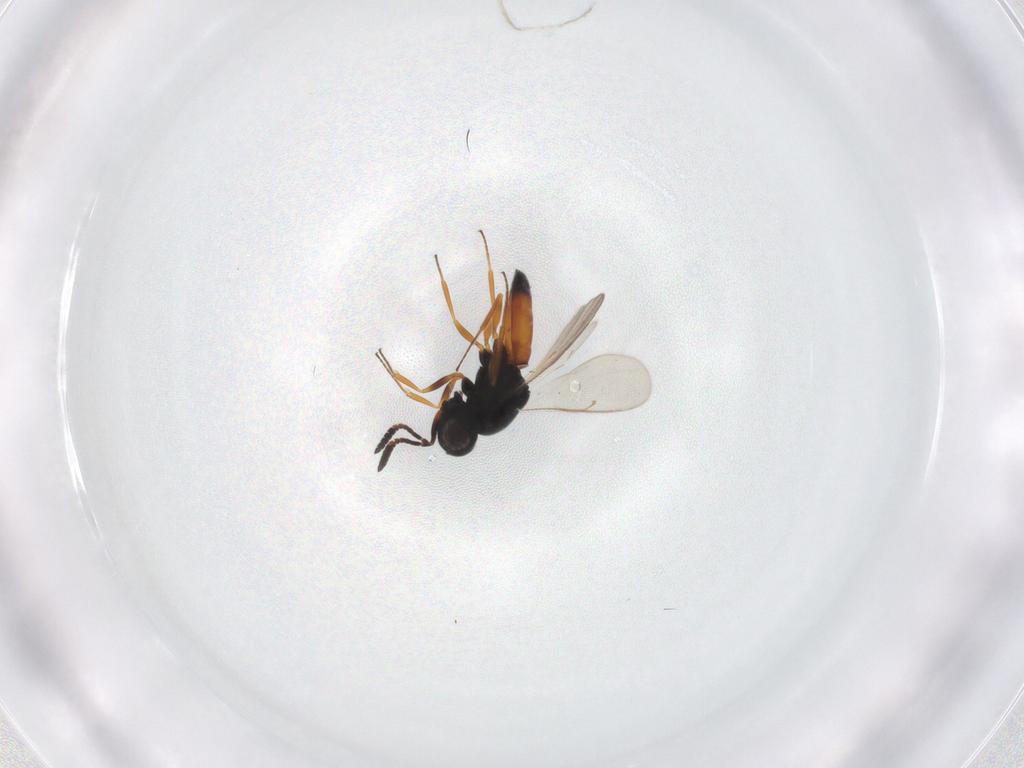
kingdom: Animalia
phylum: Arthropoda
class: Insecta
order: Hymenoptera
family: Scelionidae
